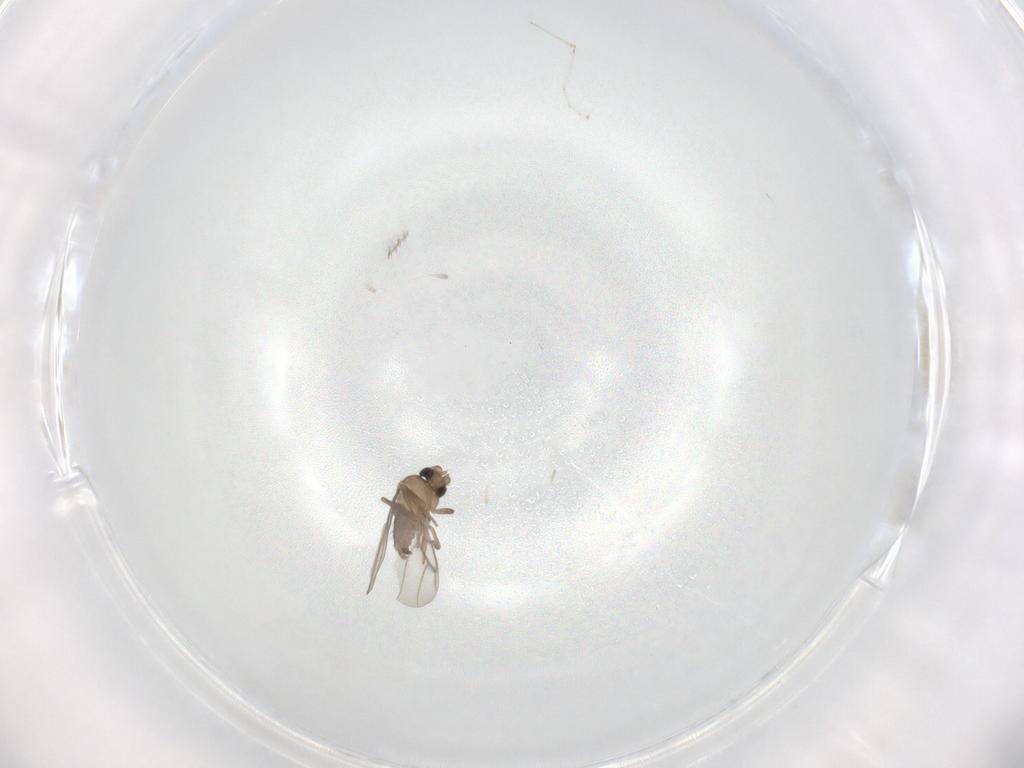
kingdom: Animalia
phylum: Arthropoda
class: Insecta
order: Diptera
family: Cecidomyiidae
